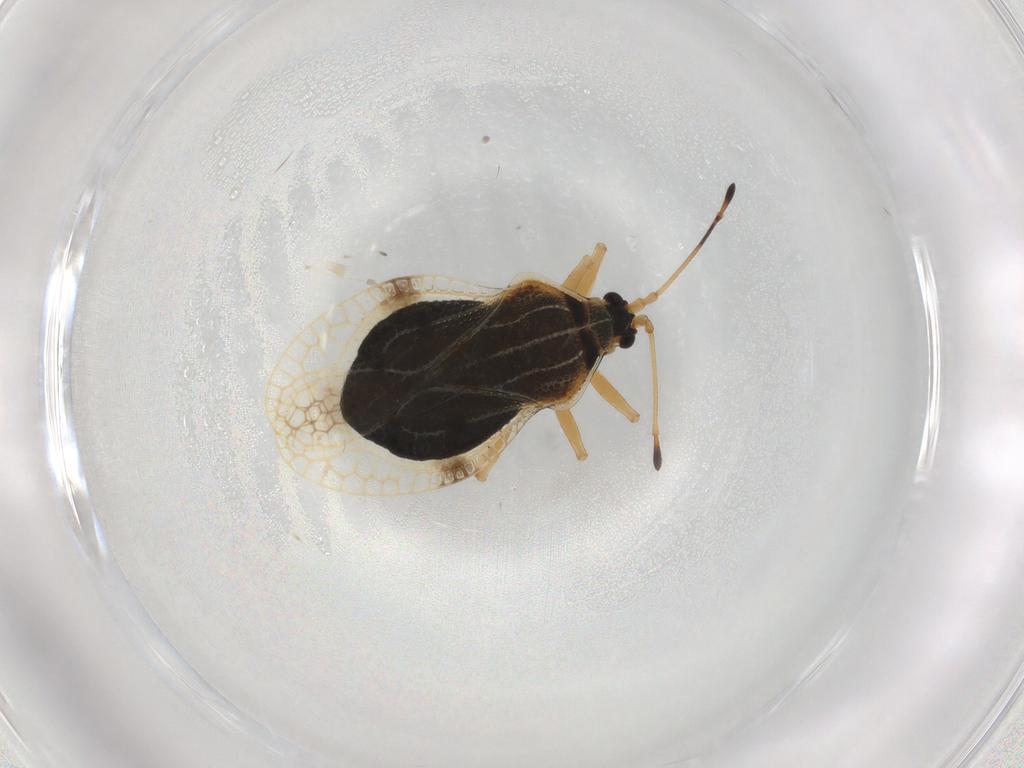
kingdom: Animalia
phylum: Arthropoda
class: Insecta
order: Hemiptera
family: Tingidae
